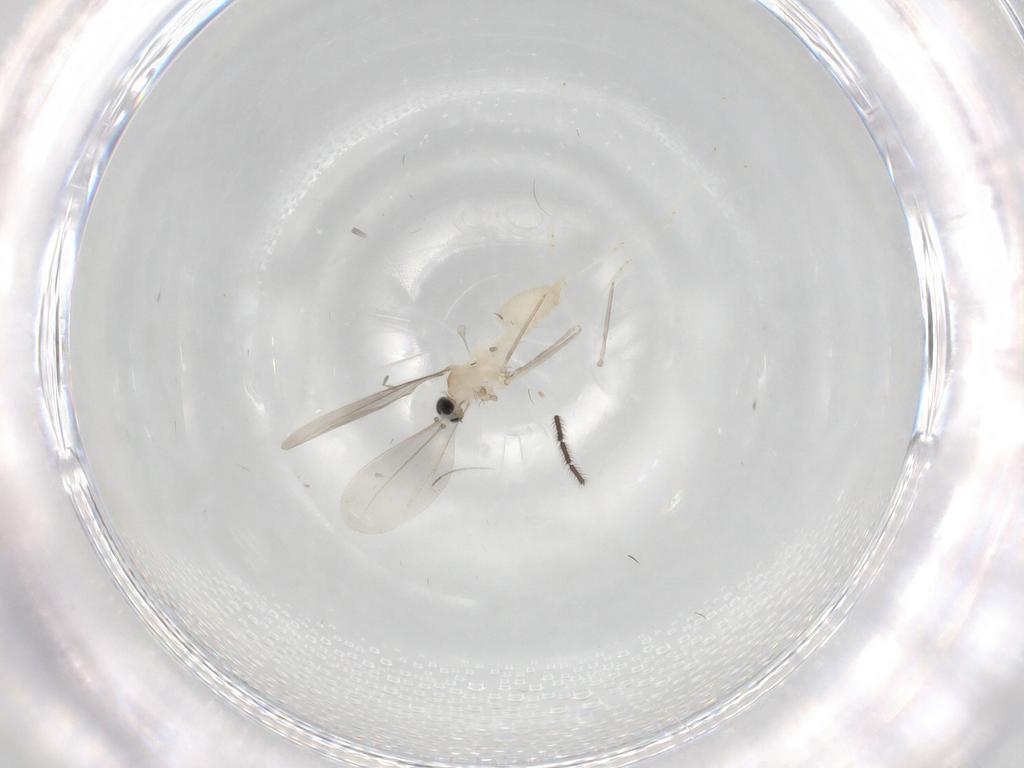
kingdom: Animalia
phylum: Arthropoda
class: Insecta
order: Diptera
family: Cecidomyiidae
